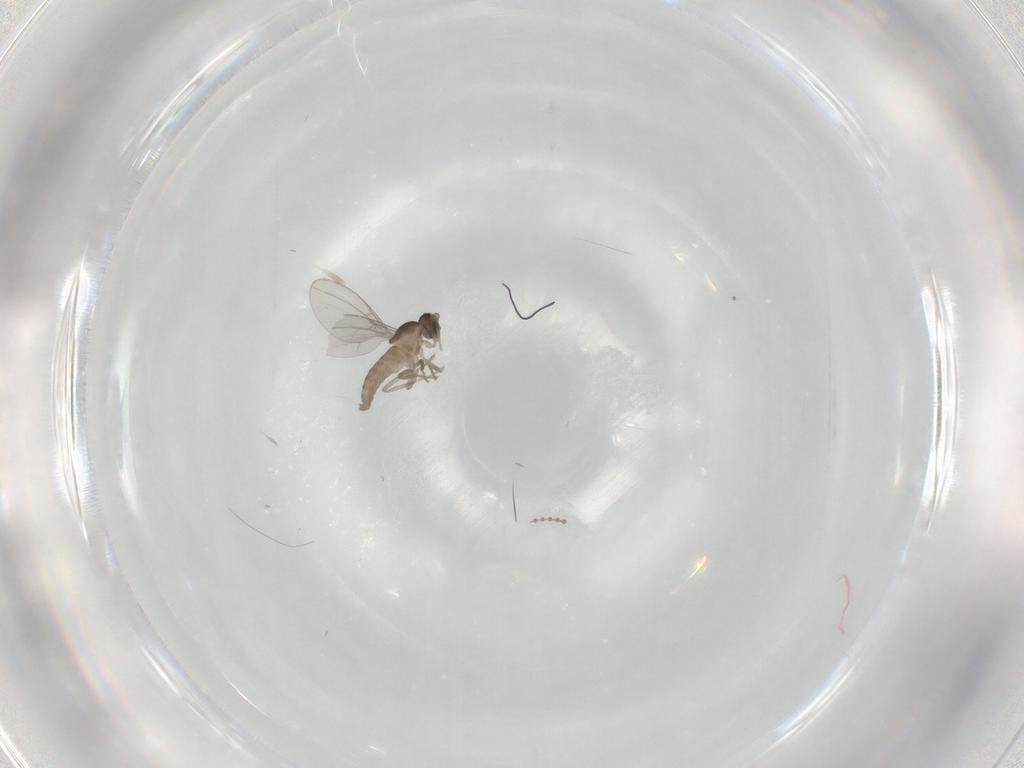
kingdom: Animalia
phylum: Arthropoda
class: Insecta
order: Diptera
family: Cecidomyiidae
